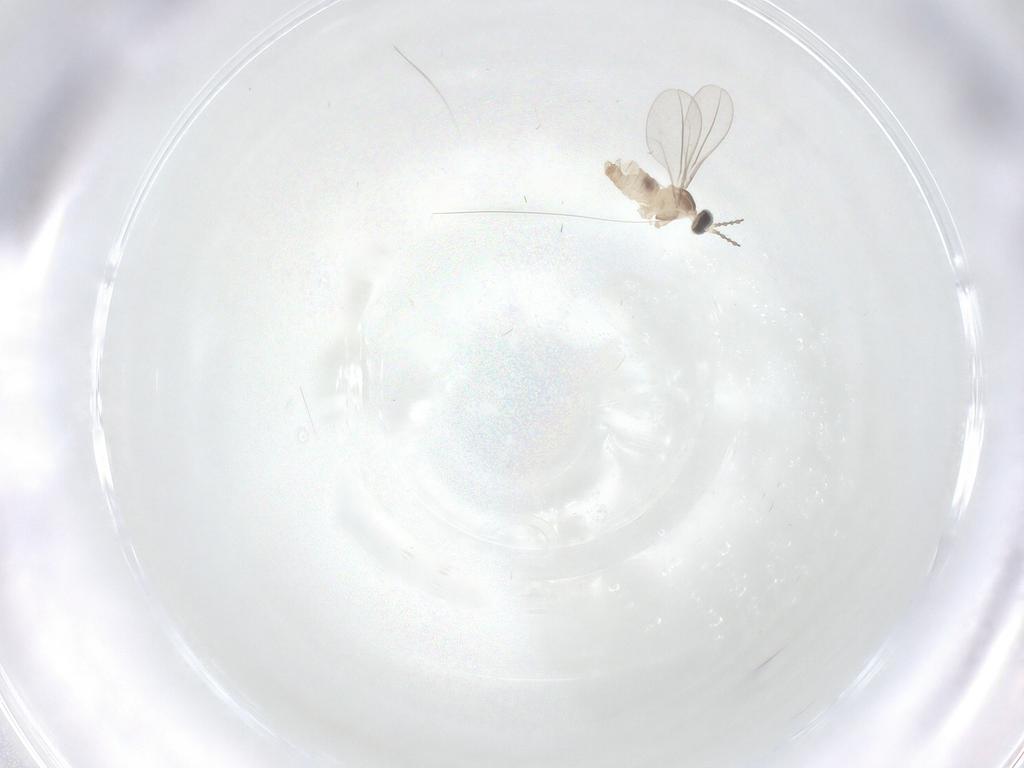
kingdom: Animalia
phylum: Arthropoda
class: Insecta
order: Diptera
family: Cecidomyiidae
